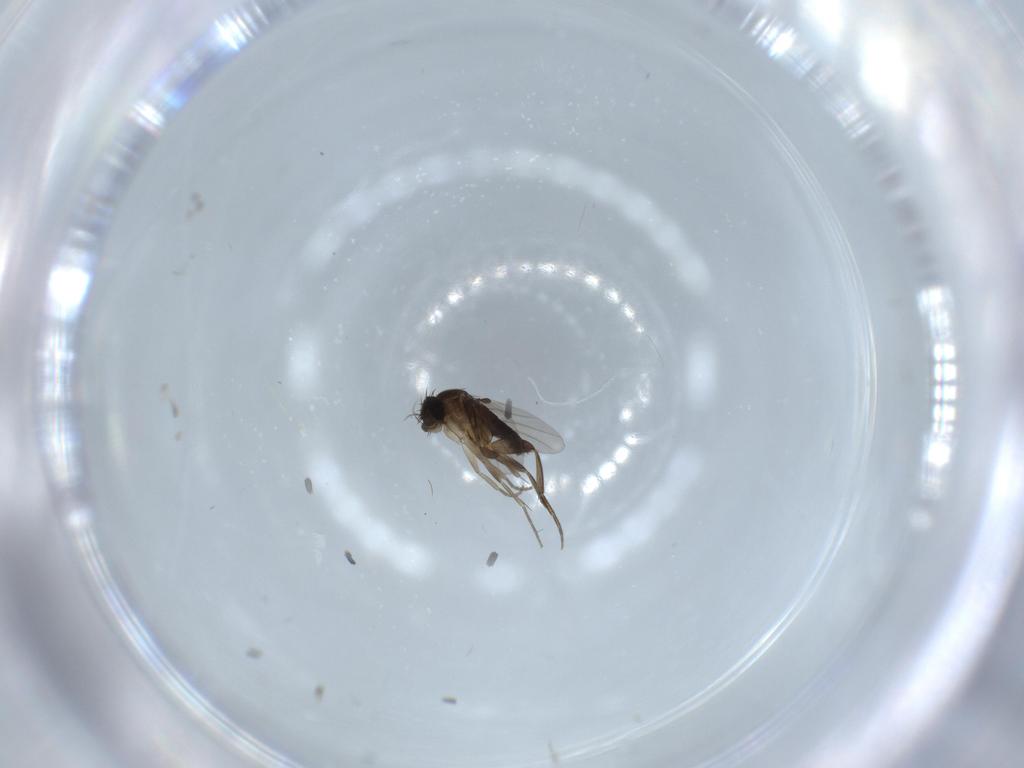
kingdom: Animalia
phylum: Arthropoda
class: Insecta
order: Diptera
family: Phoridae
